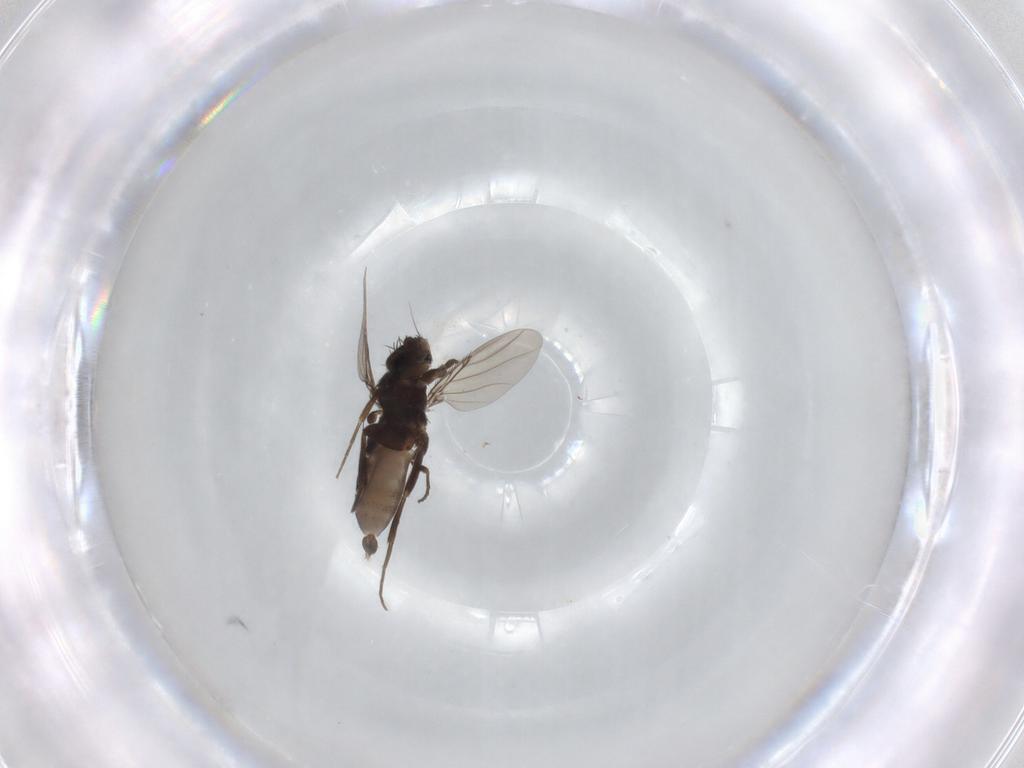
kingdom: Animalia
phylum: Arthropoda
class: Insecta
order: Diptera
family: Phoridae
